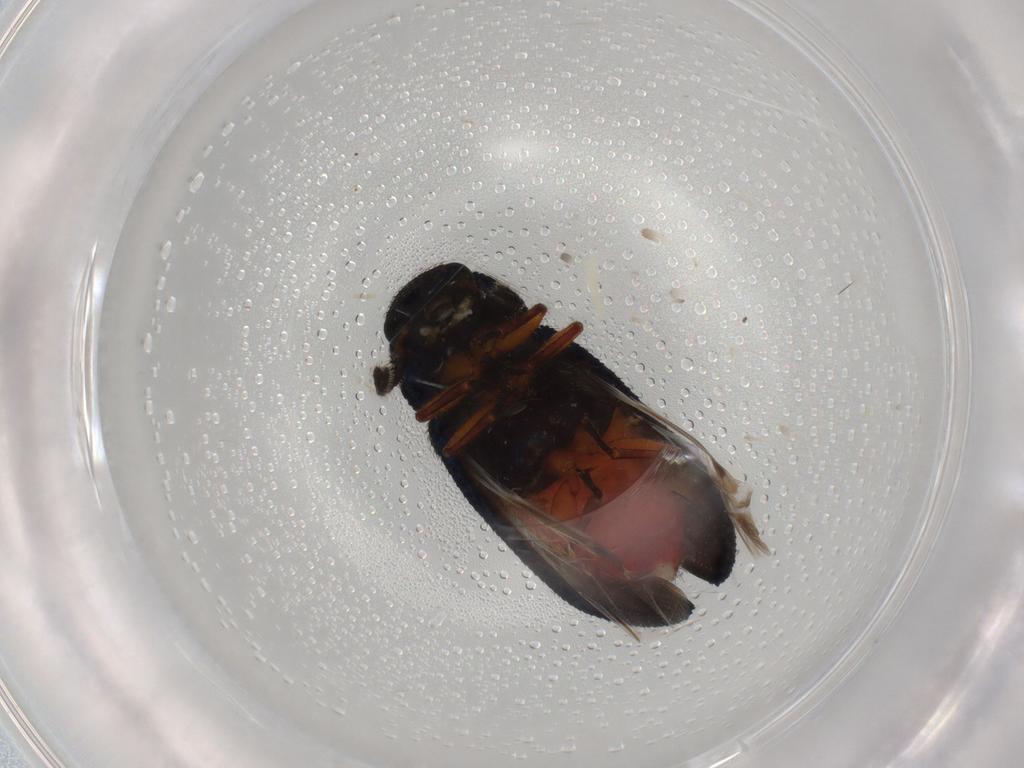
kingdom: Animalia
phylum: Arthropoda
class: Insecta
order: Coleoptera
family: Melyridae
